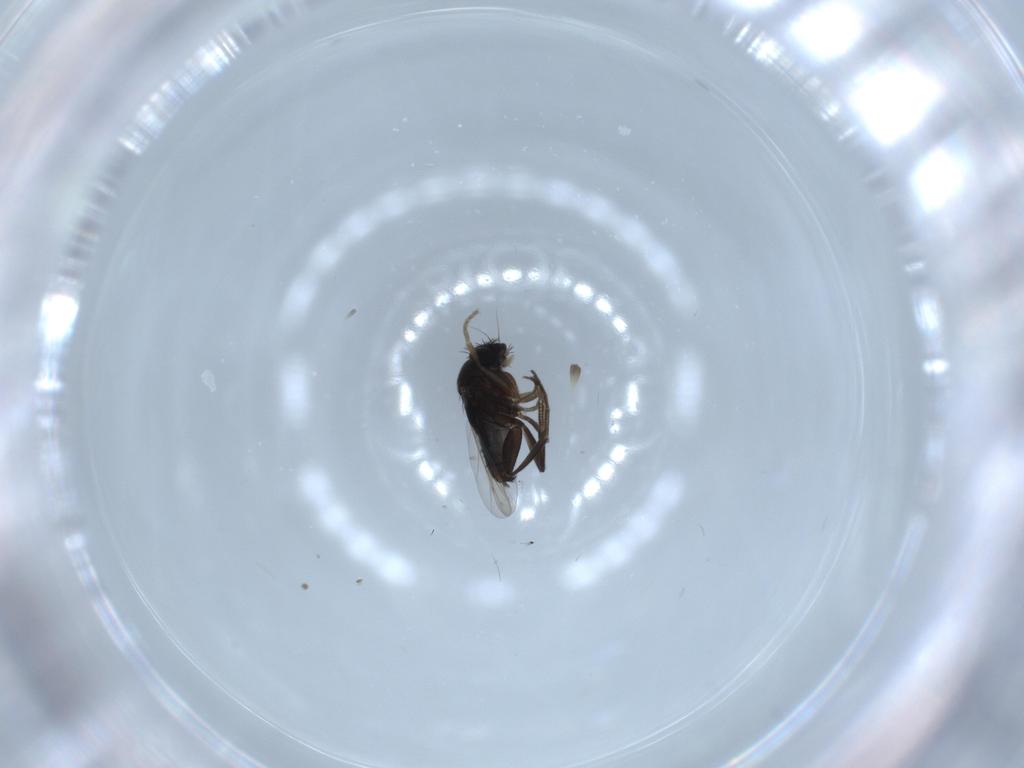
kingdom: Animalia
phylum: Arthropoda
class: Insecta
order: Diptera
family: Phoridae
